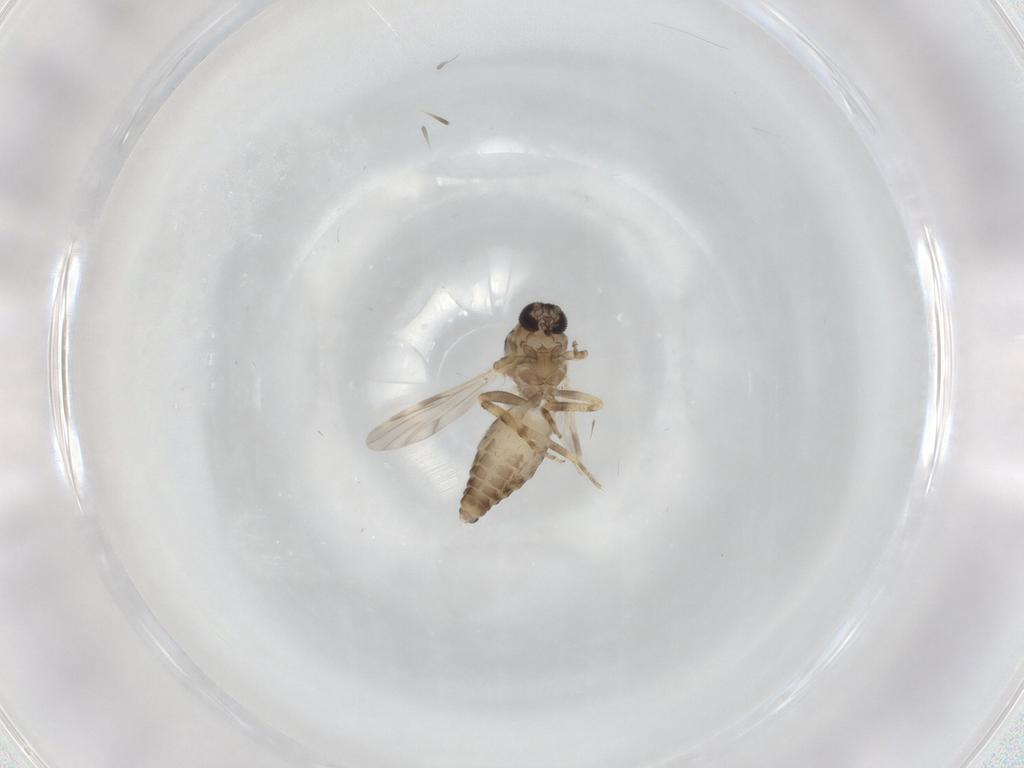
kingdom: Animalia
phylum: Arthropoda
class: Insecta
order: Diptera
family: Ceratopogonidae
